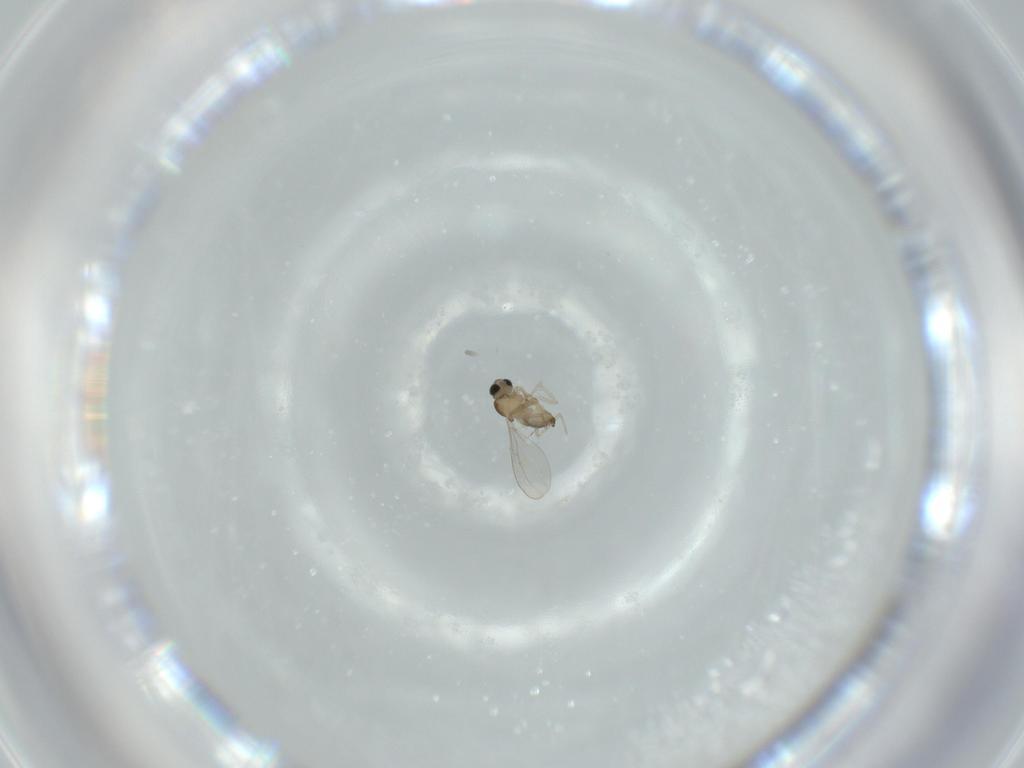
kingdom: Animalia
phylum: Arthropoda
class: Insecta
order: Diptera
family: Cecidomyiidae
